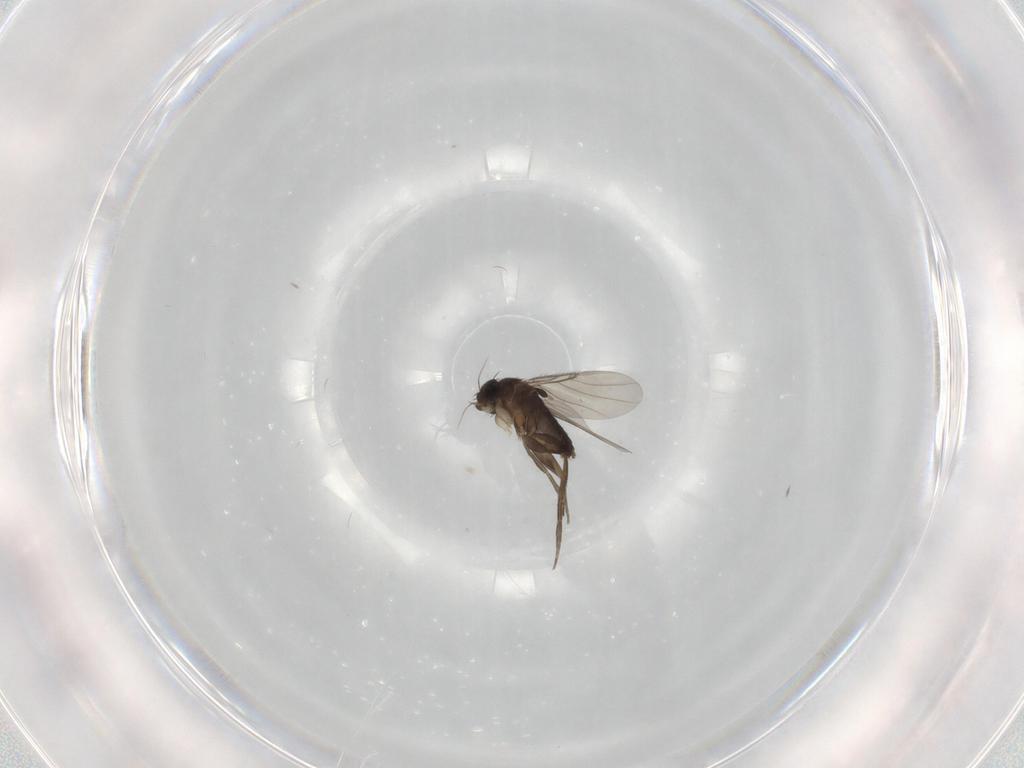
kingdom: Animalia
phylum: Arthropoda
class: Insecta
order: Diptera
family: Phoridae
